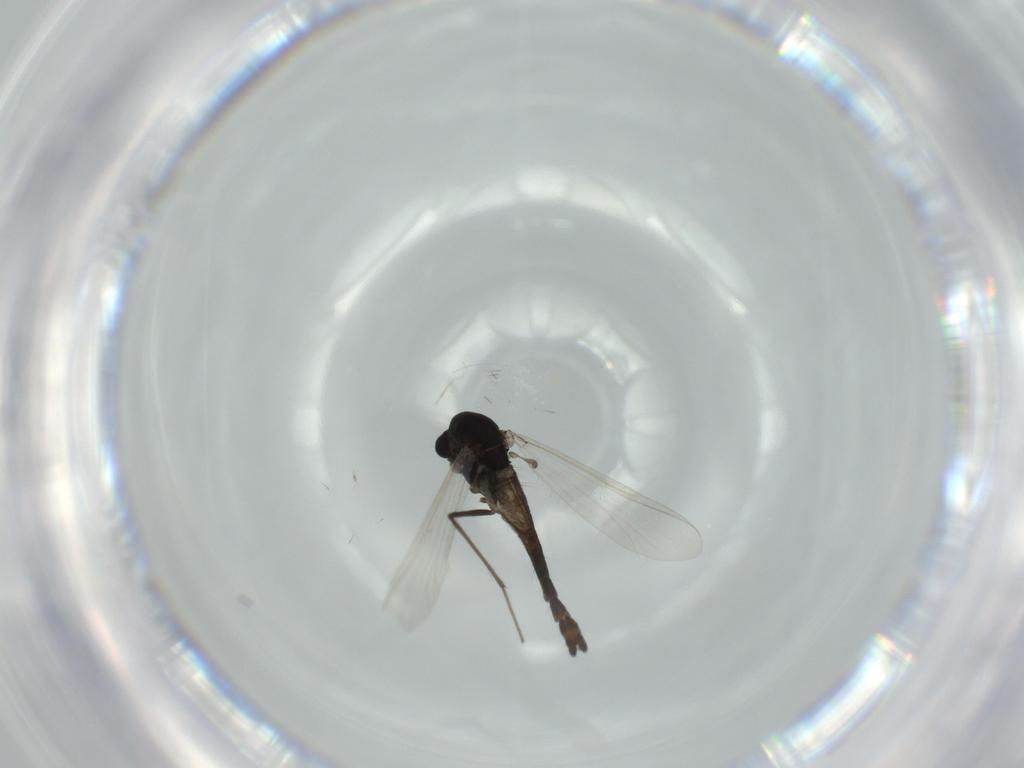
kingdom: Animalia
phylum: Arthropoda
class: Insecta
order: Diptera
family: Chironomidae
